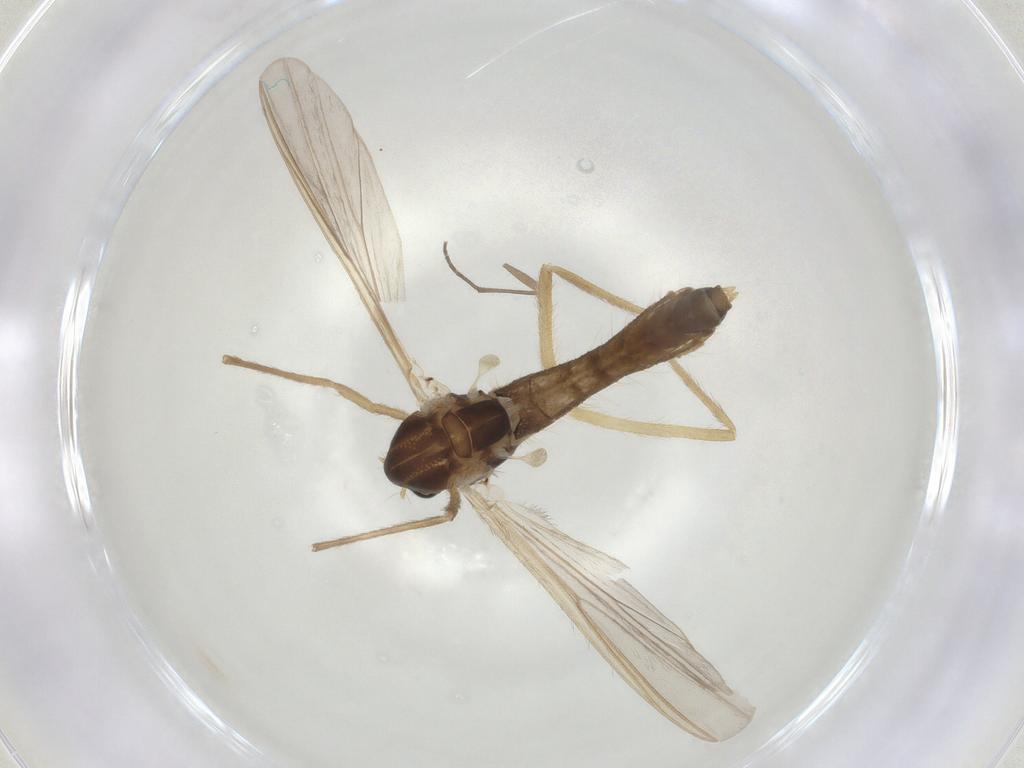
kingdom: Animalia
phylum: Arthropoda
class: Insecta
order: Diptera
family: Chironomidae
